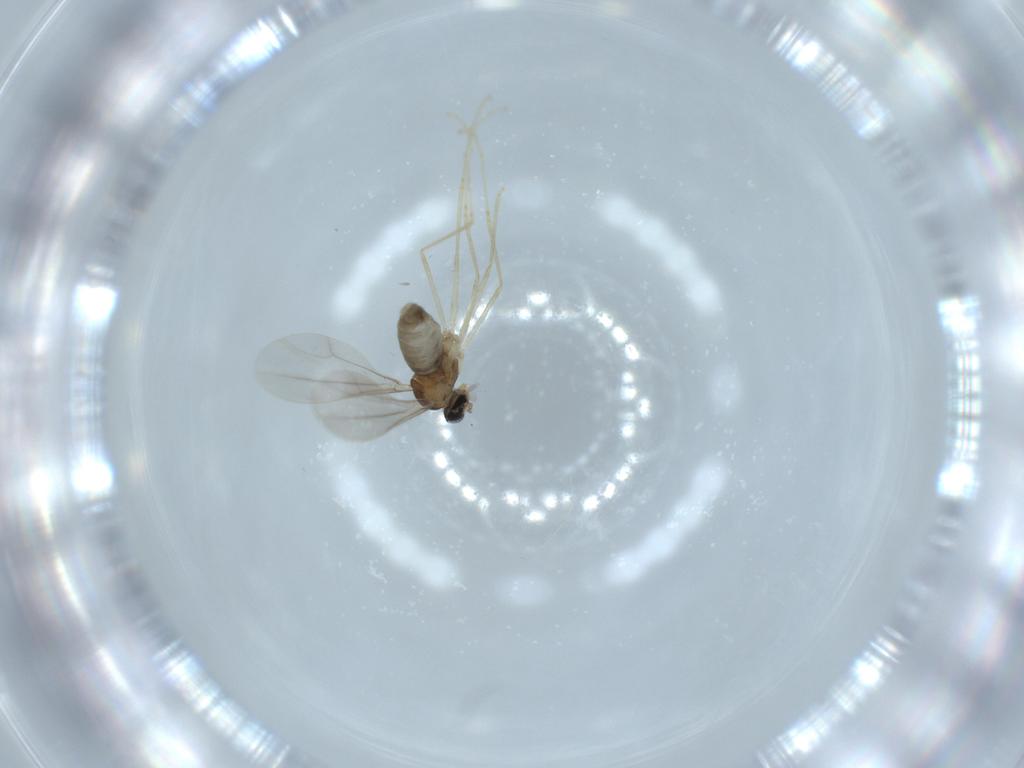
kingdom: Animalia
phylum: Arthropoda
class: Insecta
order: Diptera
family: Cecidomyiidae
